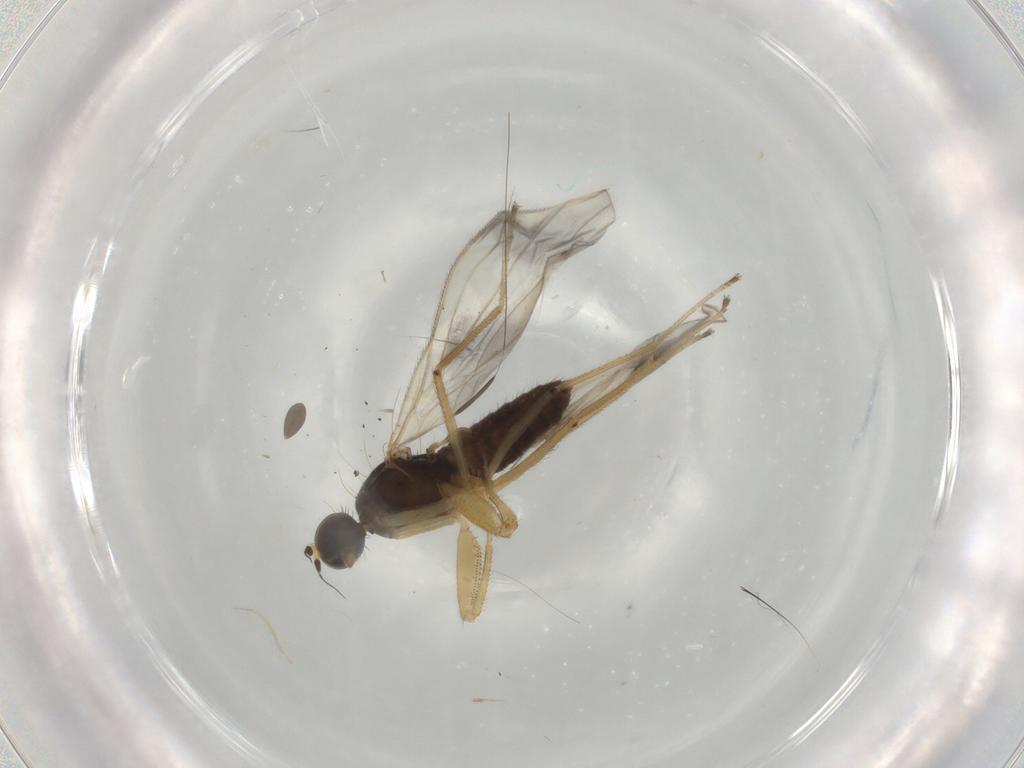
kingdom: Animalia
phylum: Arthropoda
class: Insecta
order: Diptera
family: Empididae
